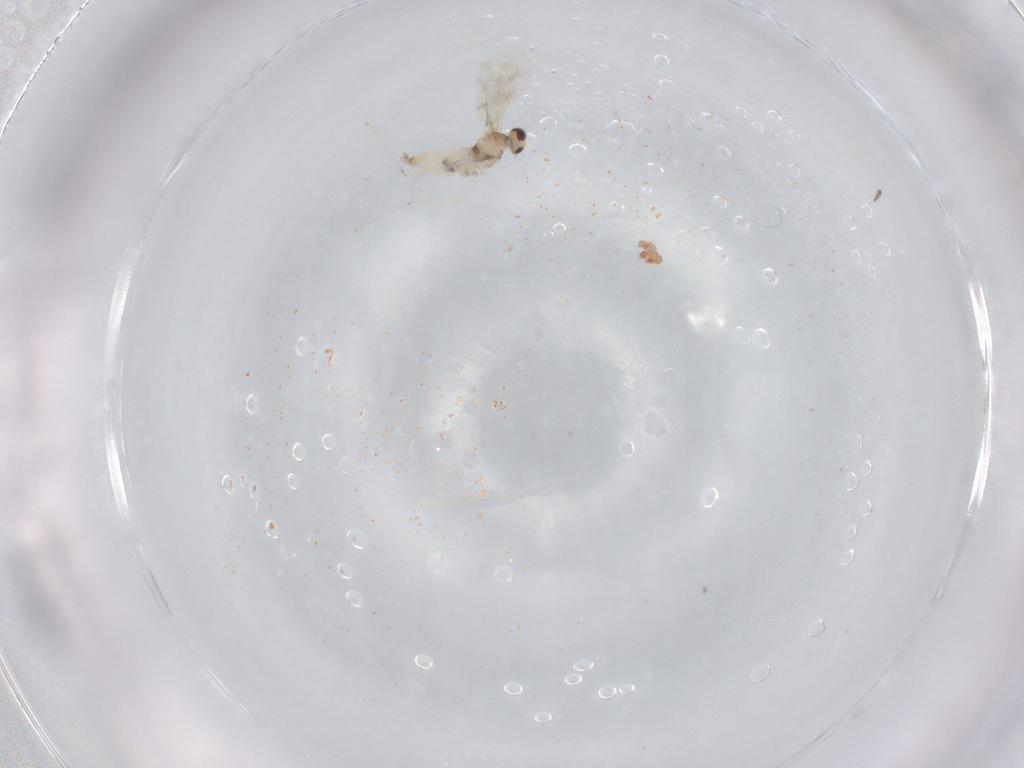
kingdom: Animalia
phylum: Arthropoda
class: Insecta
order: Diptera
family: Cecidomyiidae
